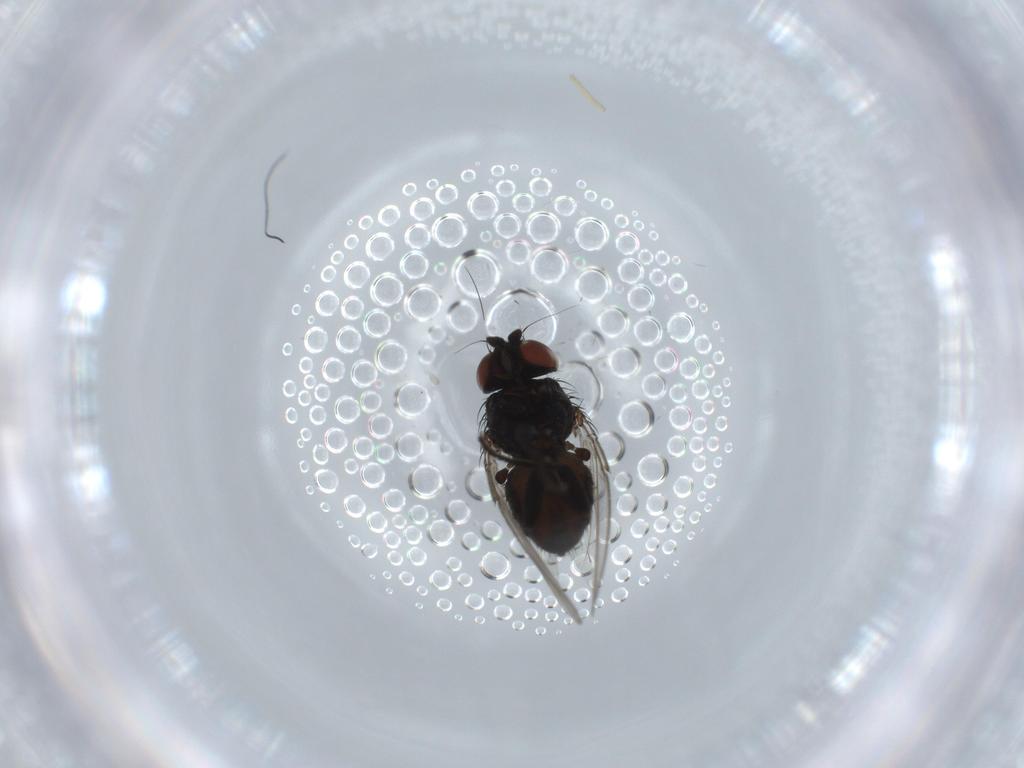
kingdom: Animalia
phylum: Arthropoda
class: Insecta
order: Diptera
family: Milichiidae
